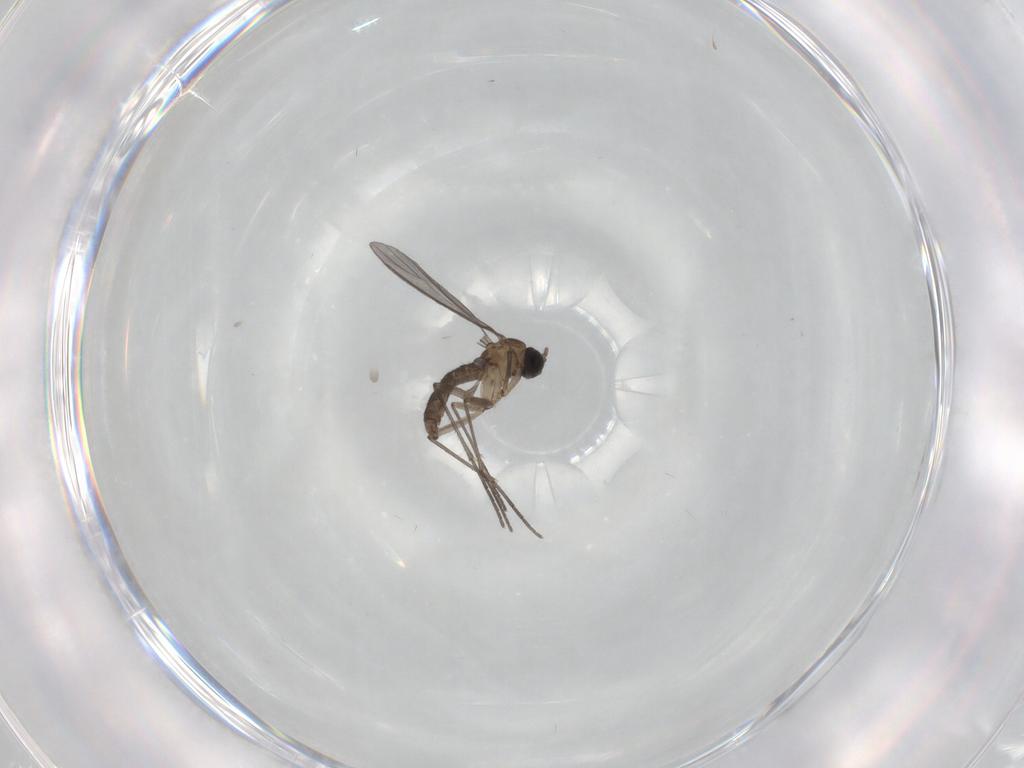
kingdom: Animalia
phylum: Arthropoda
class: Insecta
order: Diptera
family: Sciaridae
